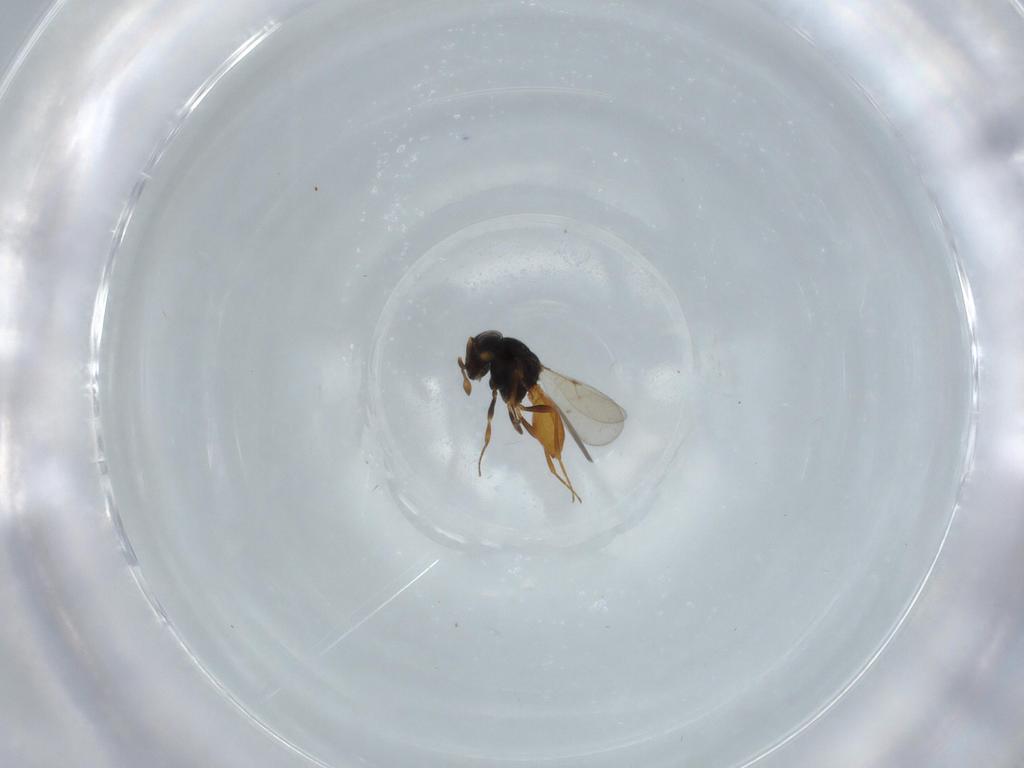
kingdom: Animalia
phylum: Arthropoda
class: Insecta
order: Hymenoptera
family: Scelionidae
